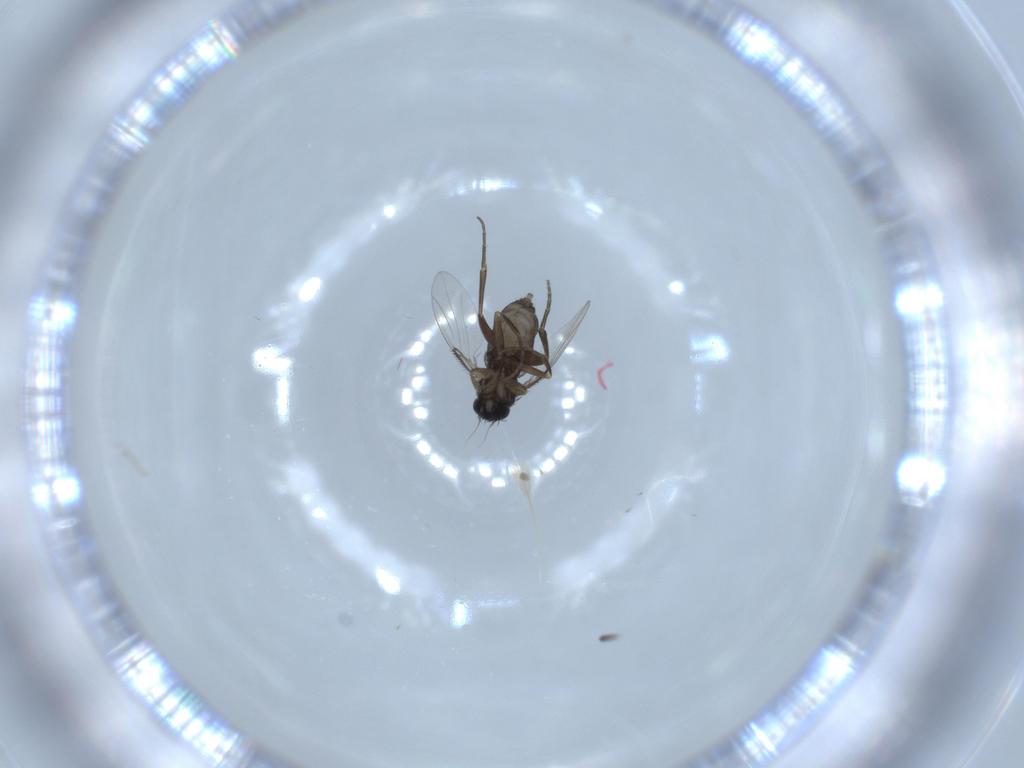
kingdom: Animalia
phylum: Arthropoda
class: Insecta
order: Diptera
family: Phoridae
